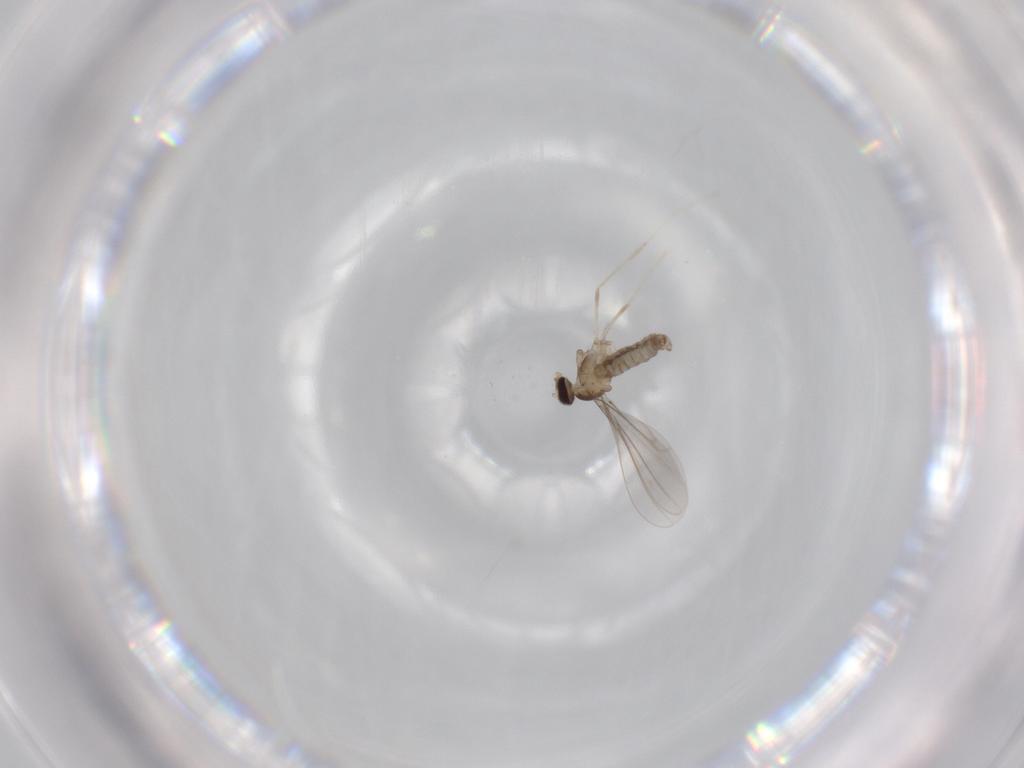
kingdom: Animalia
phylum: Arthropoda
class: Insecta
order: Diptera
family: Cecidomyiidae
